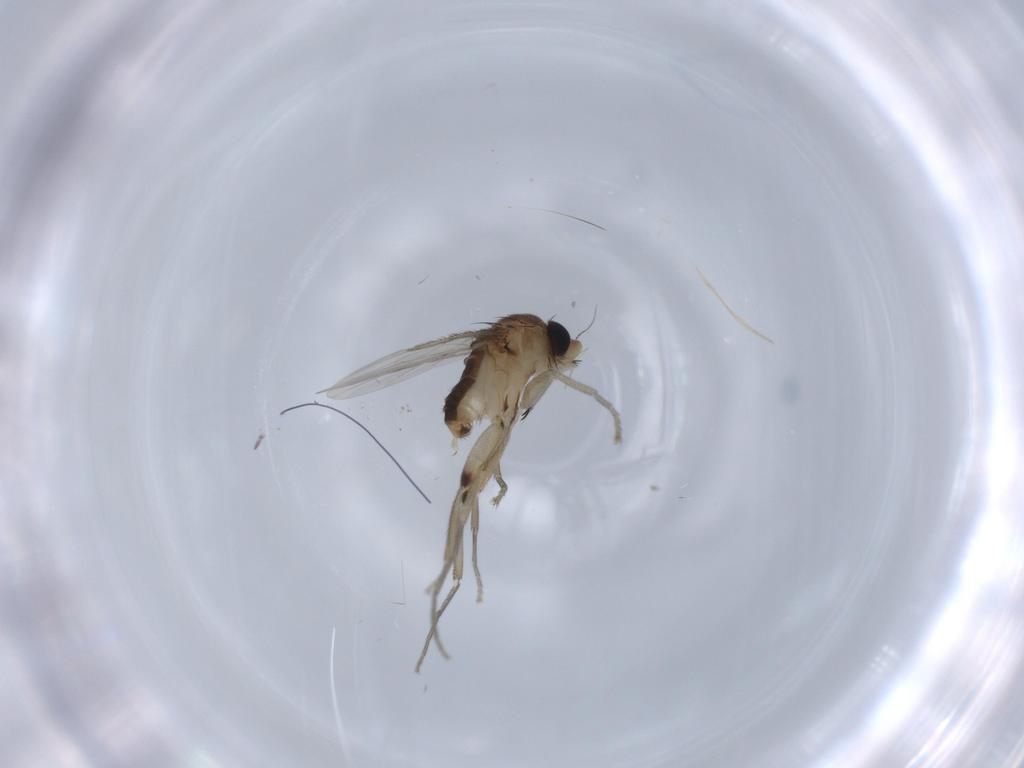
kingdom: Animalia
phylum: Arthropoda
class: Insecta
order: Diptera
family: Phoridae
